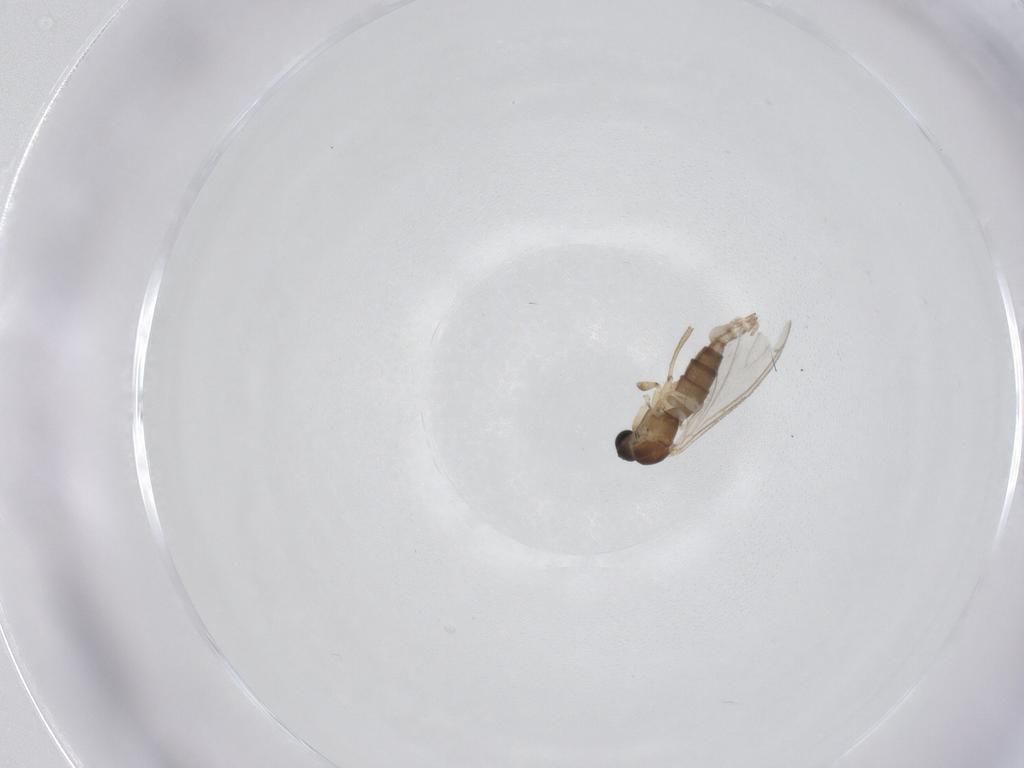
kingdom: Animalia
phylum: Arthropoda
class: Insecta
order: Diptera
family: Sciaridae
